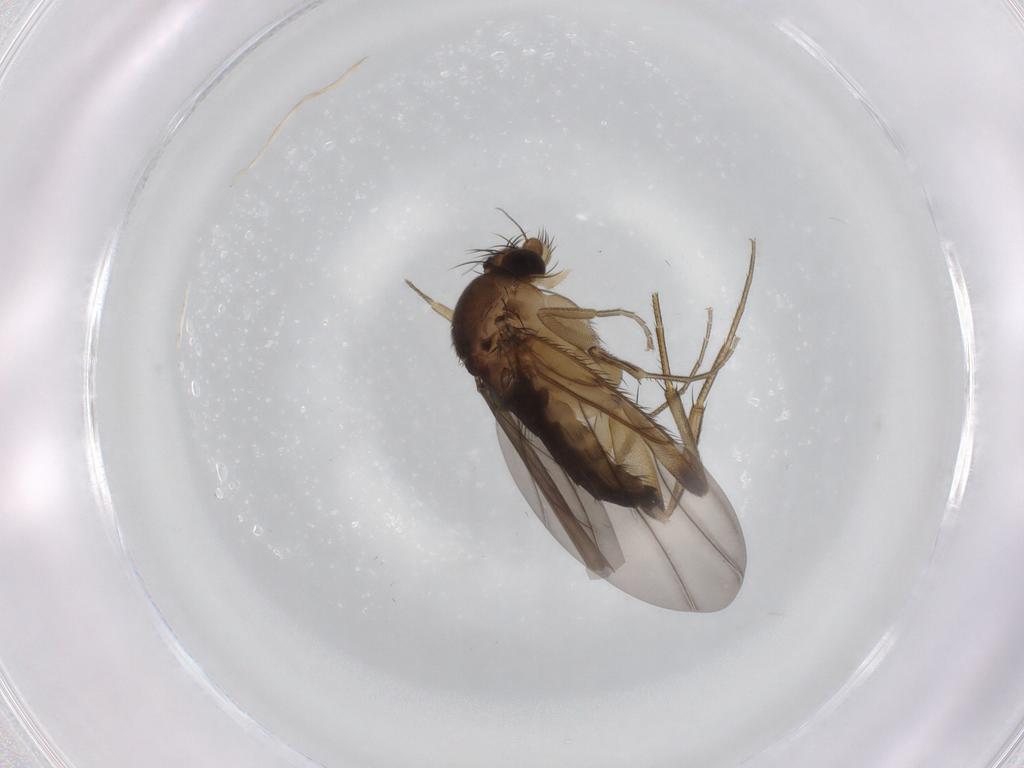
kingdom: Animalia
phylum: Arthropoda
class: Insecta
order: Diptera
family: Phoridae
